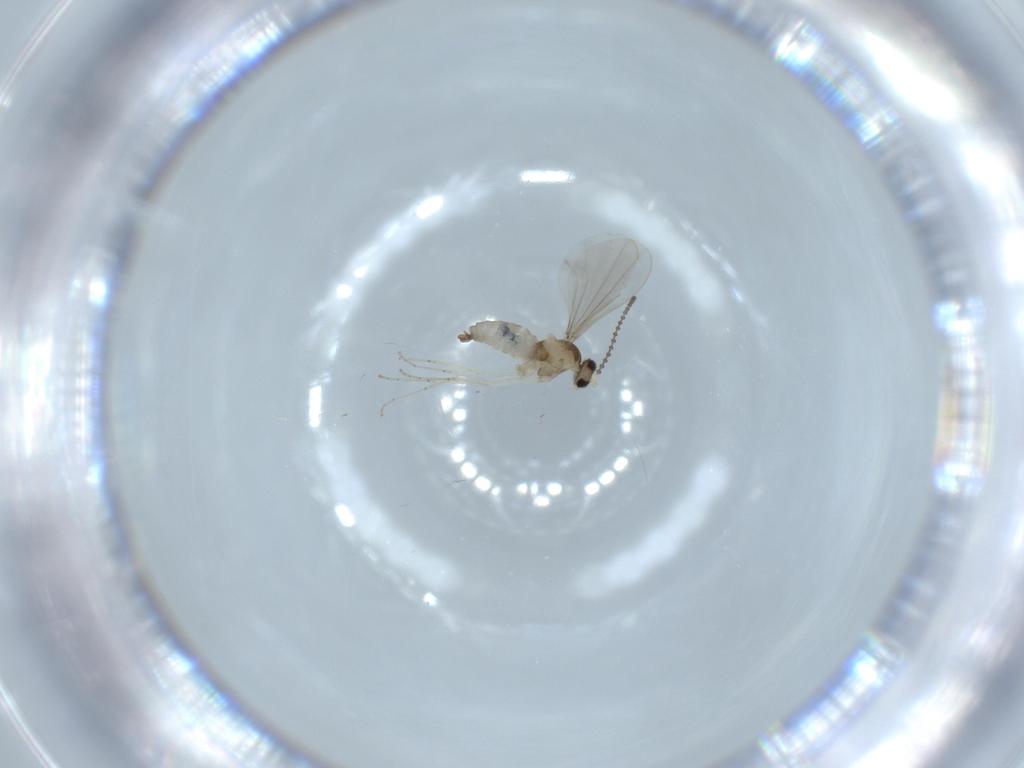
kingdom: Animalia
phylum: Arthropoda
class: Insecta
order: Diptera
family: Cecidomyiidae
